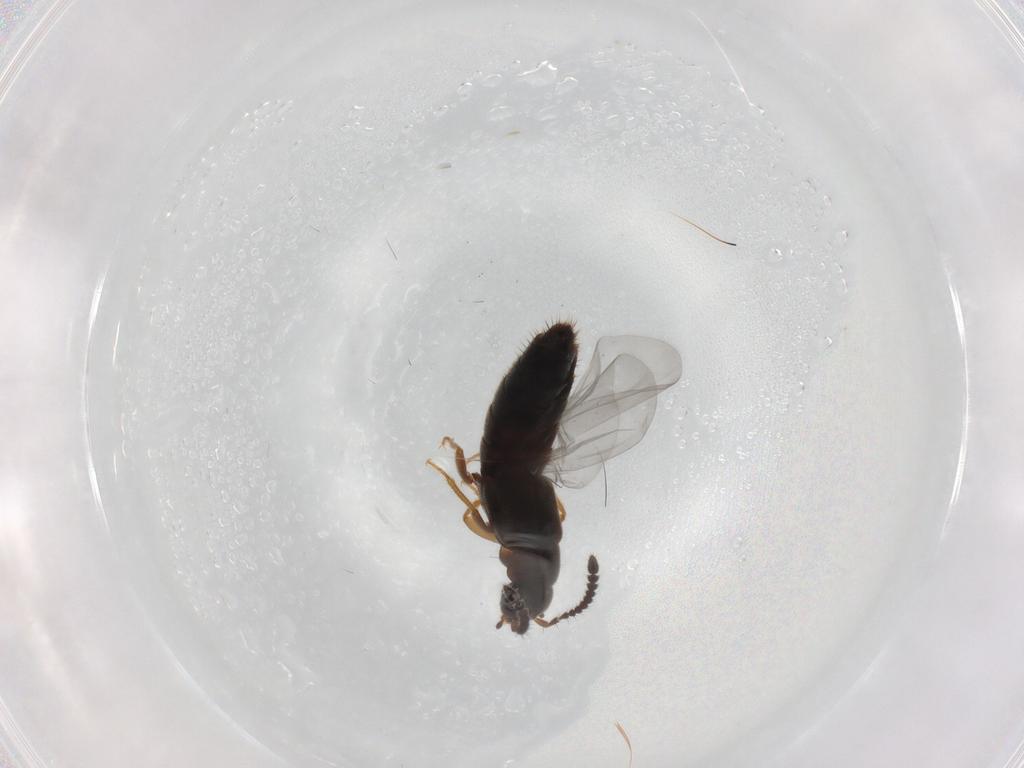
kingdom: Animalia
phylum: Arthropoda
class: Insecta
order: Coleoptera
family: Staphylinidae
